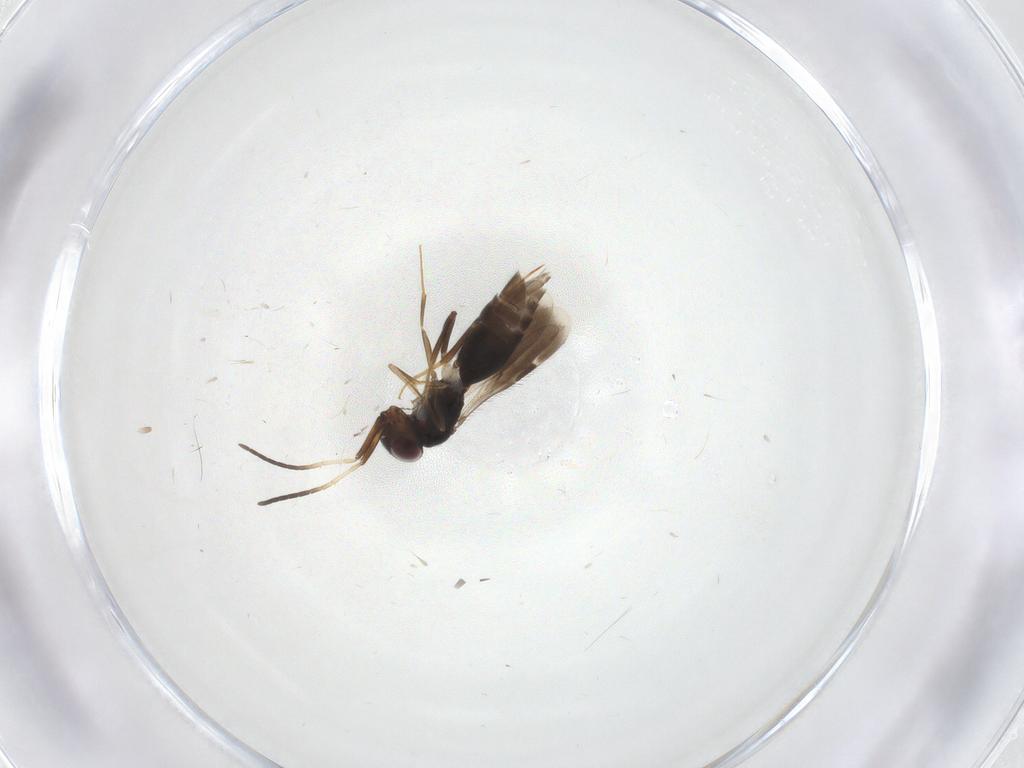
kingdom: Animalia
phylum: Arthropoda
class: Insecta
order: Hymenoptera
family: Megaspilidae
